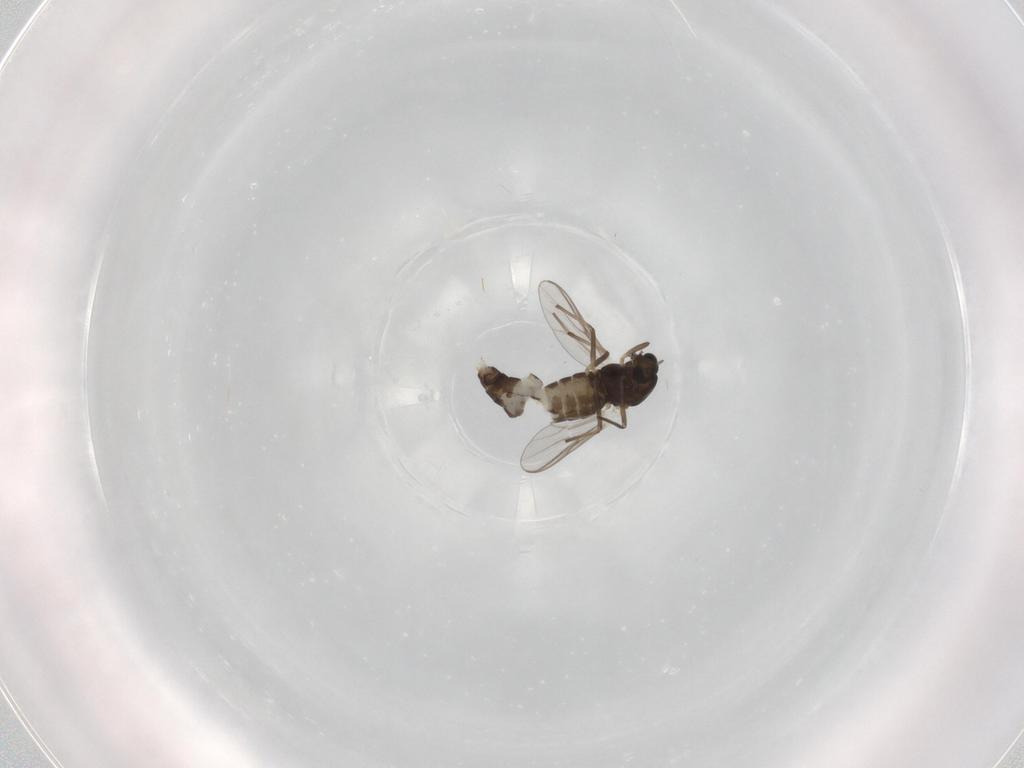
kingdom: Animalia
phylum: Arthropoda
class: Insecta
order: Diptera
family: Chironomidae
